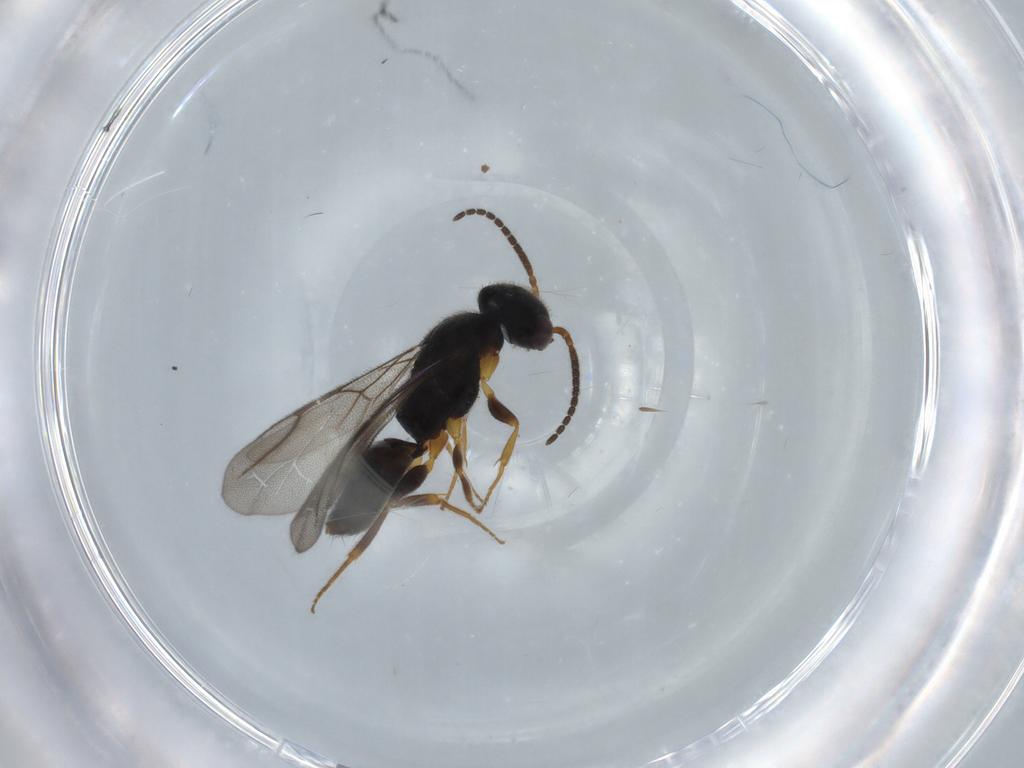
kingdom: Animalia
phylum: Arthropoda
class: Insecta
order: Hymenoptera
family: Bethylidae
